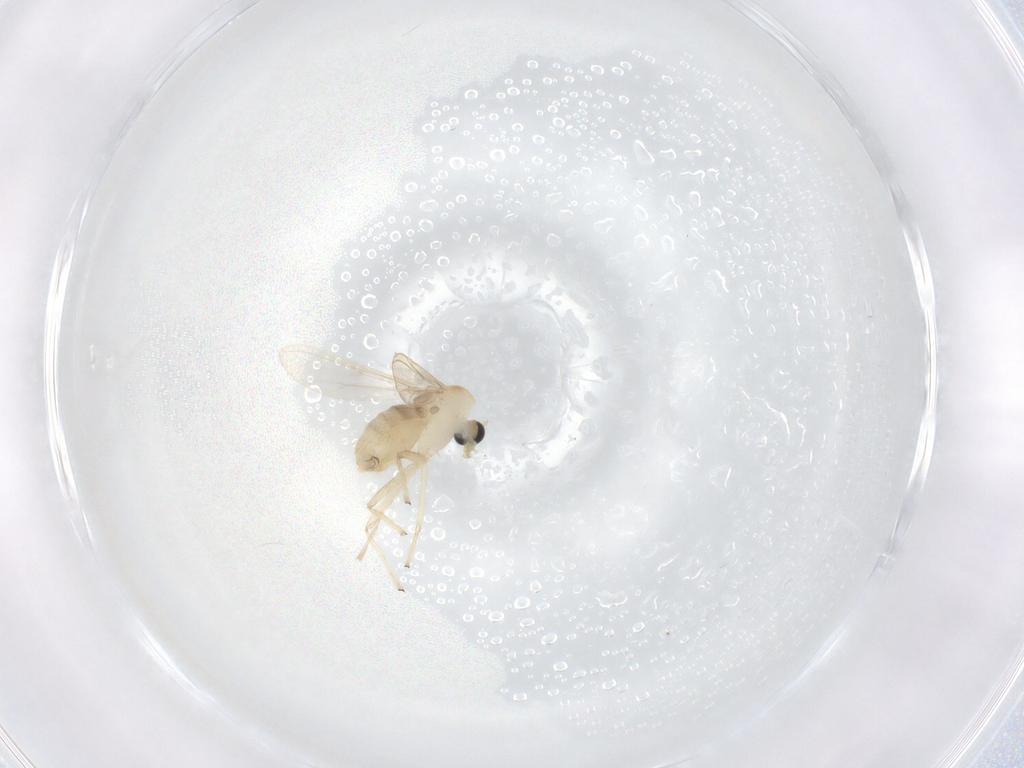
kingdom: Animalia
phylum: Arthropoda
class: Insecta
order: Diptera
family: Chironomidae
